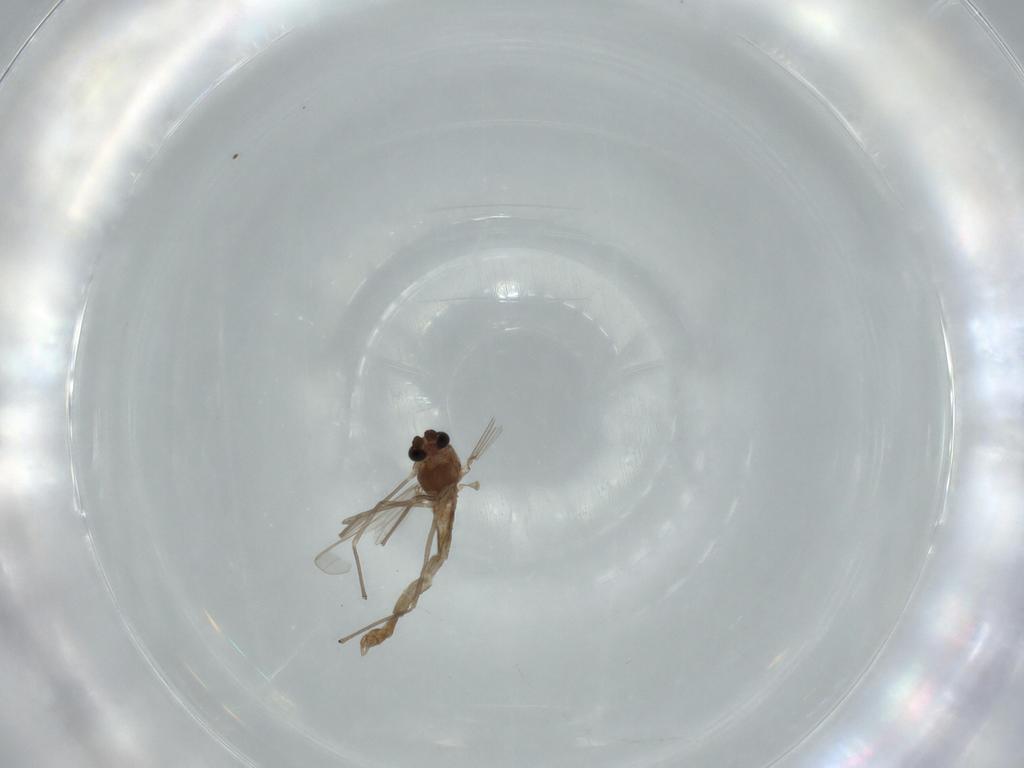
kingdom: Animalia
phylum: Arthropoda
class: Insecta
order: Diptera
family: Chironomidae
